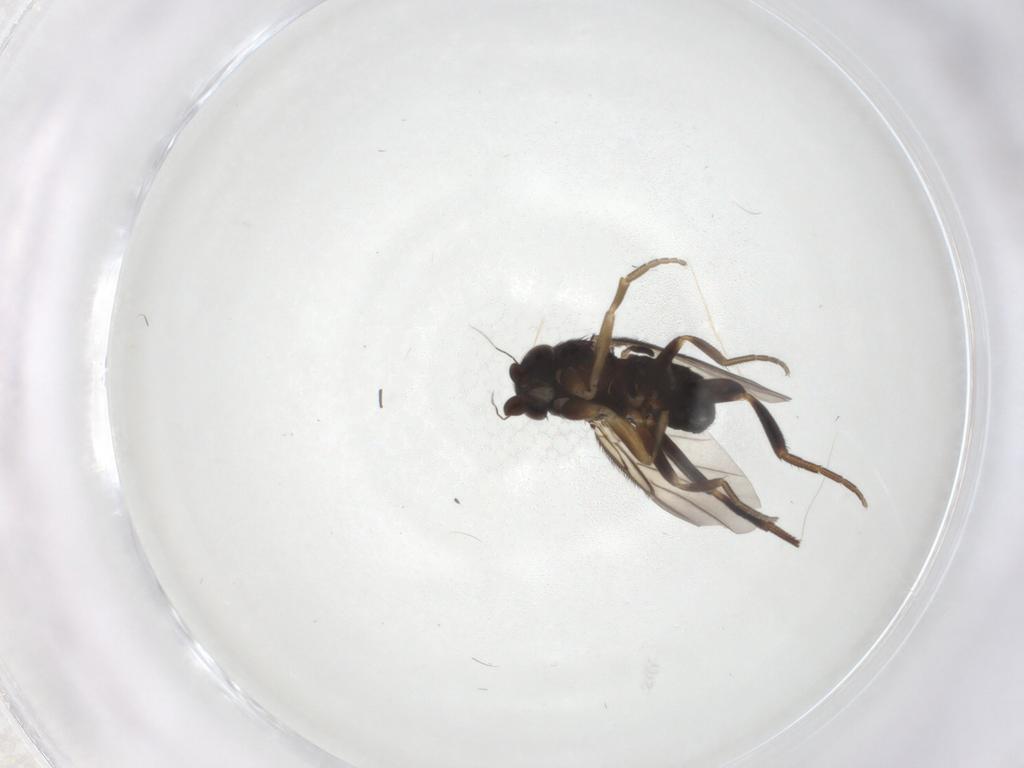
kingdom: Animalia
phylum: Arthropoda
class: Insecta
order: Diptera
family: Phoridae
